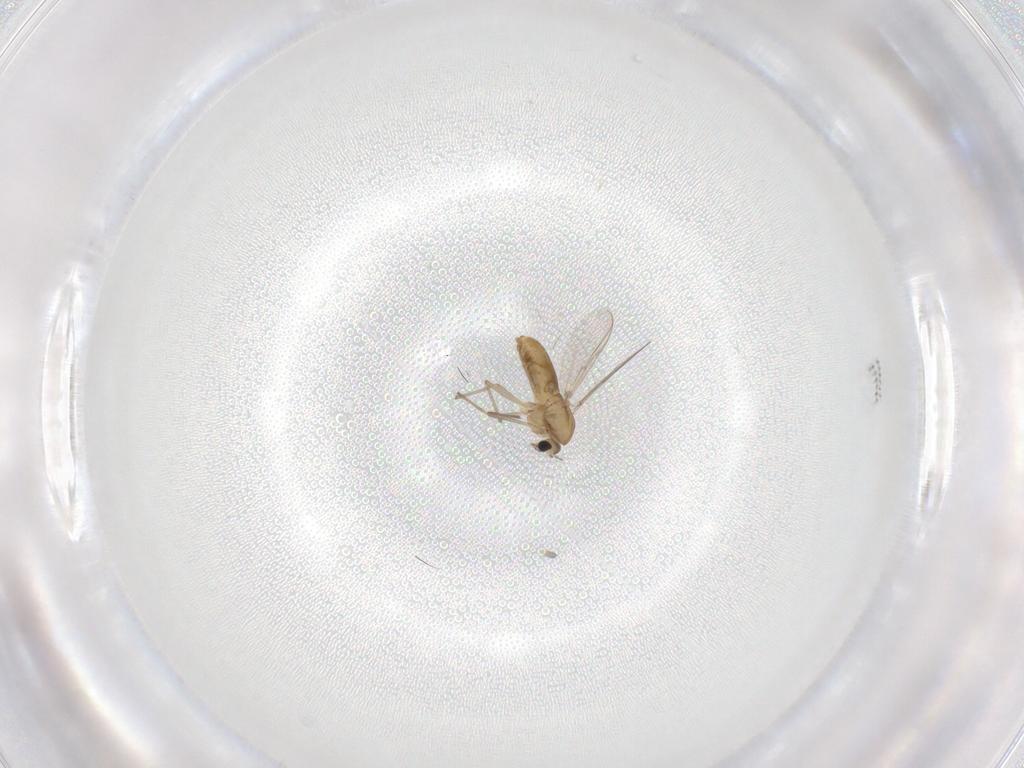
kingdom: Animalia
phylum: Arthropoda
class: Insecta
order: Diptera
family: Chironomidae
